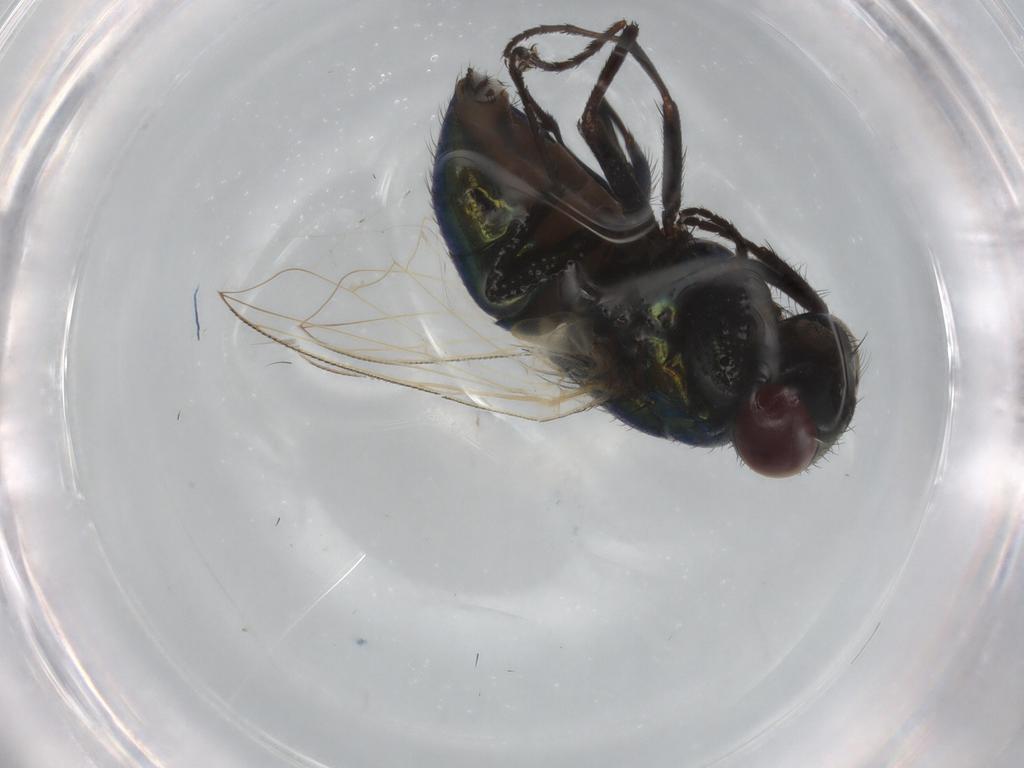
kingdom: Animalia
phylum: Arthropoda
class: Insecta
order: Diptera
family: Muscidae
